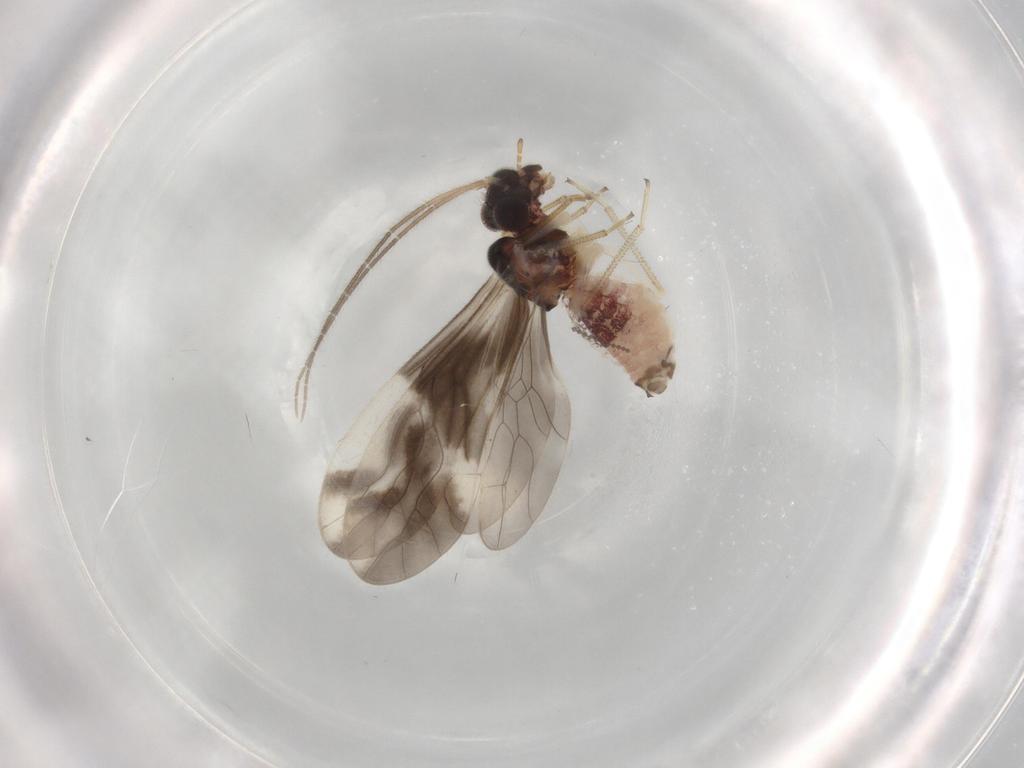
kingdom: Animalia
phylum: Arthropoda
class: Insecta
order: Psocodea
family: Caeciliusidae
